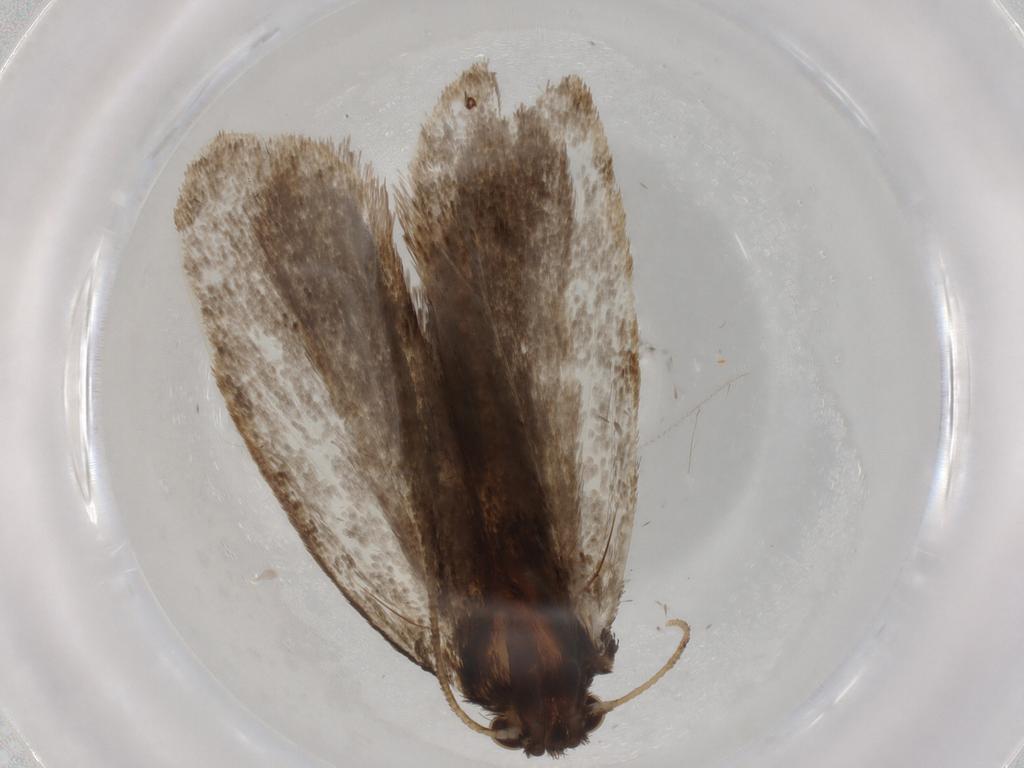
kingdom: Animalia
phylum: Arthropoda
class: Insecta
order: Lepidoptera
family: Tineidae
